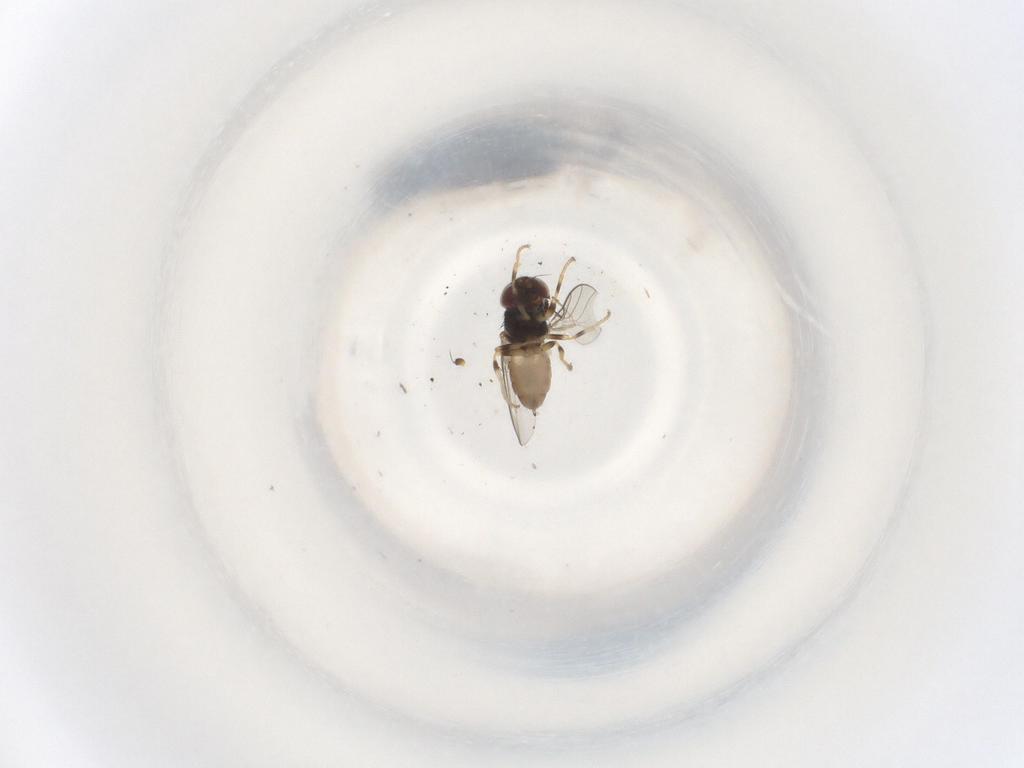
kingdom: Animalia
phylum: Arthropoda
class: Insecta
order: Diptera
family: Chloropidae
